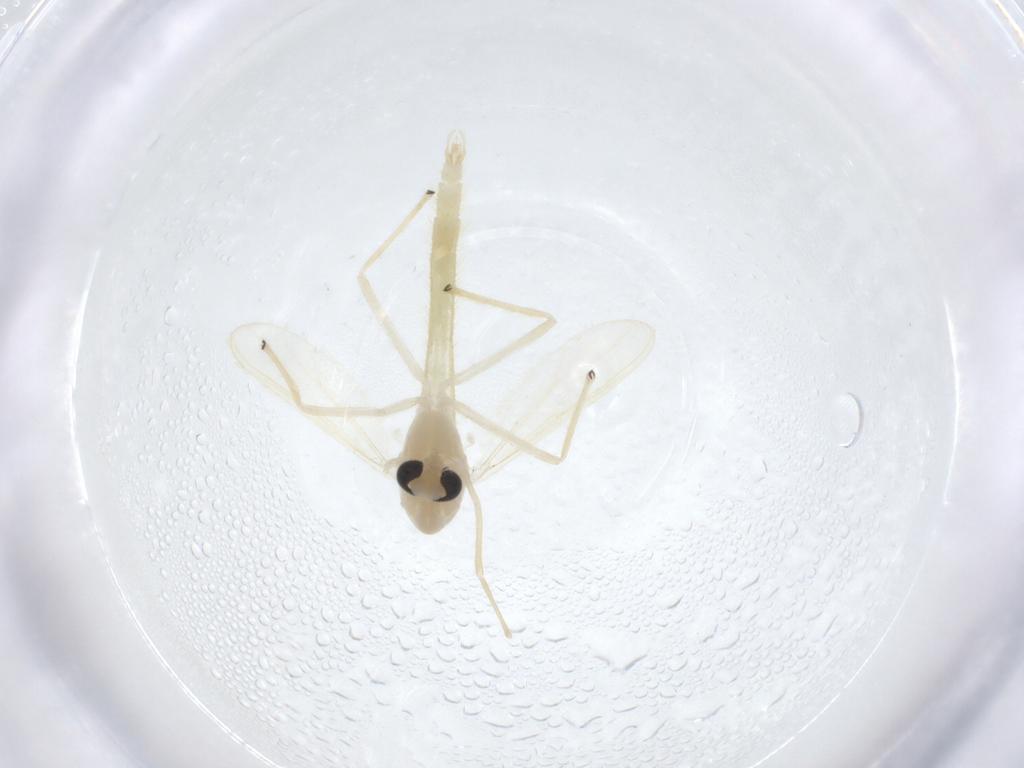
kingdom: Animalia
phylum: Arthropoda
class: Insecta
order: Diptera
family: Chironomidae
